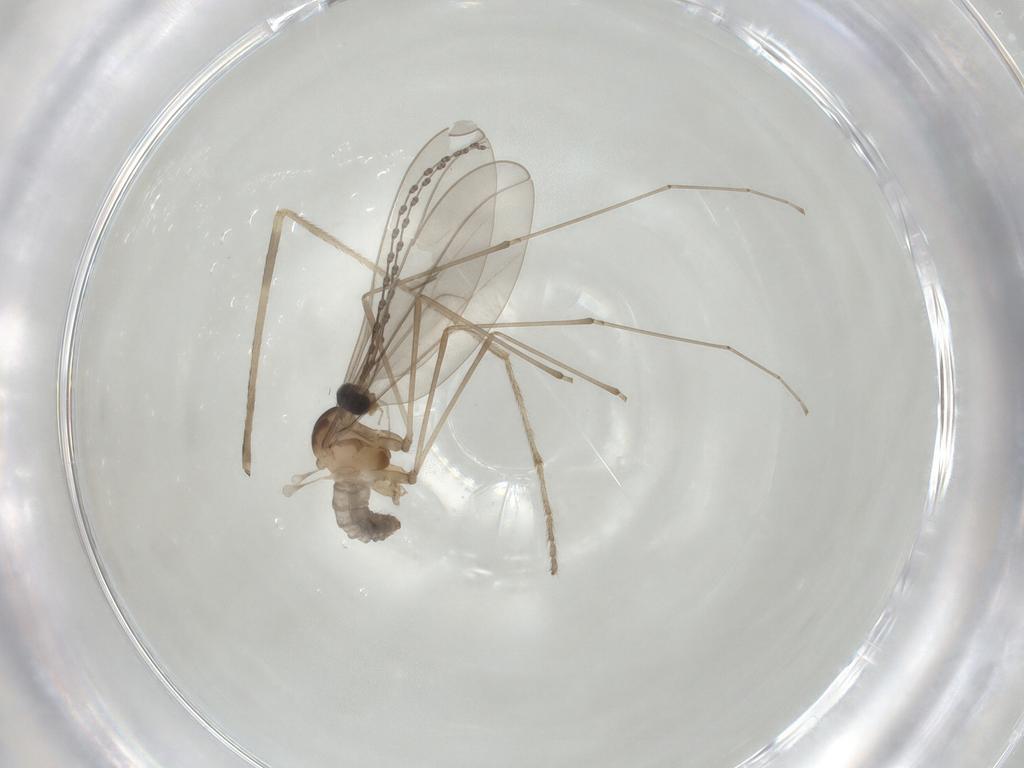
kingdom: Animalia
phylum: Arthropoda
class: Insecta
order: Diptera
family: Cecidomyiidae
